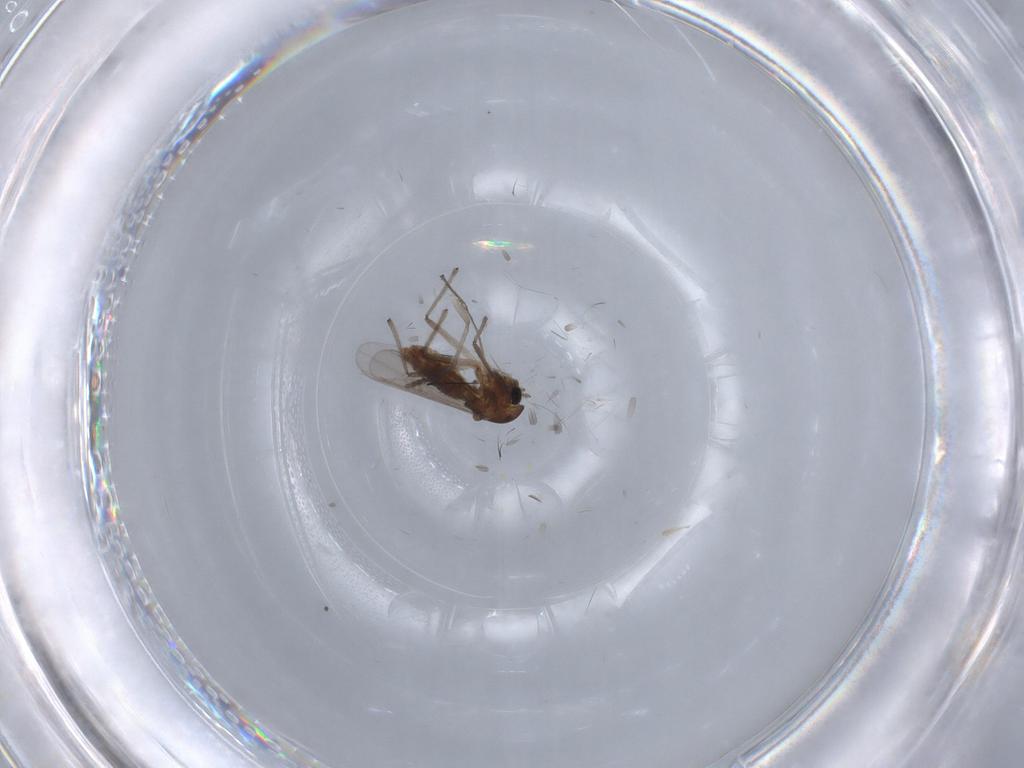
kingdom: Animalia
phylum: Arthropoda
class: Insecta
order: Diptera
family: Chironomidae
